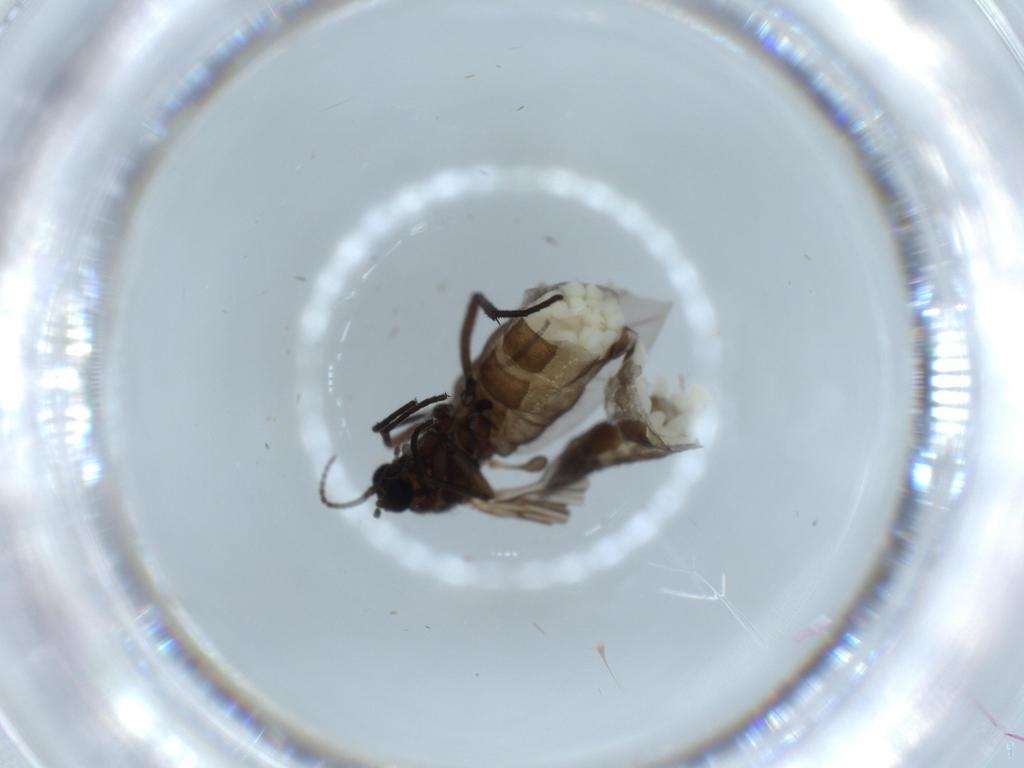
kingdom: Animalia
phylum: Arthropoda
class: Insecta
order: Diptera
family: Sciaridae
